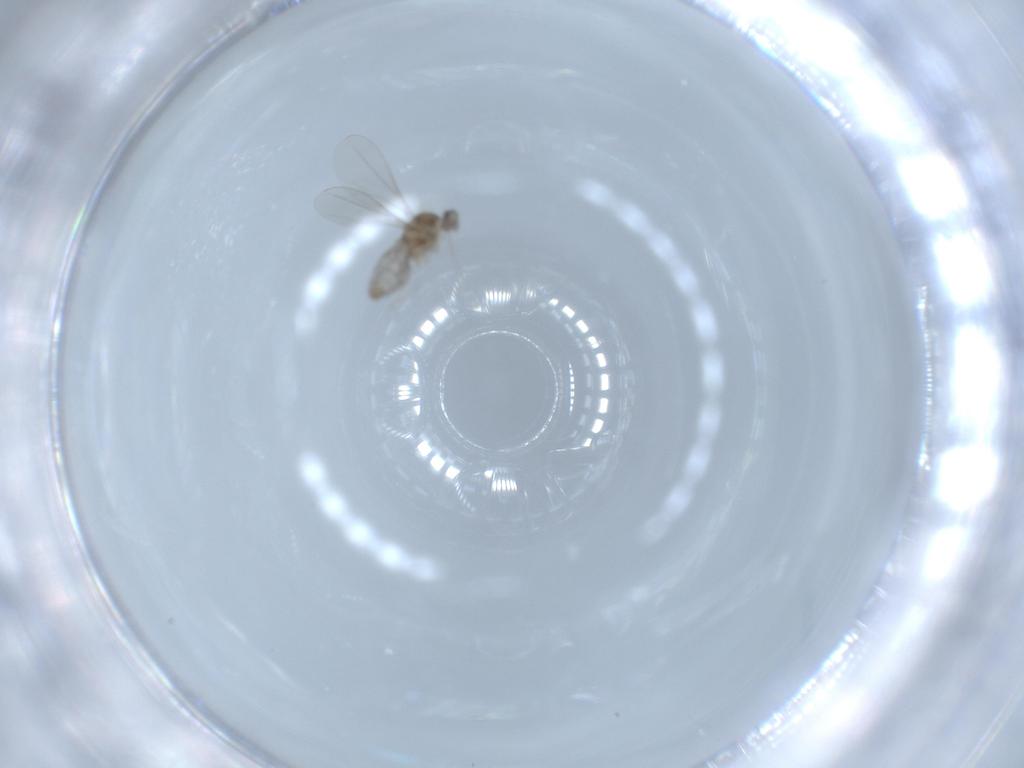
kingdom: Animalia
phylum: Arthropoda
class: Insecta
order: Diptera
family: Cecidomyiidae
